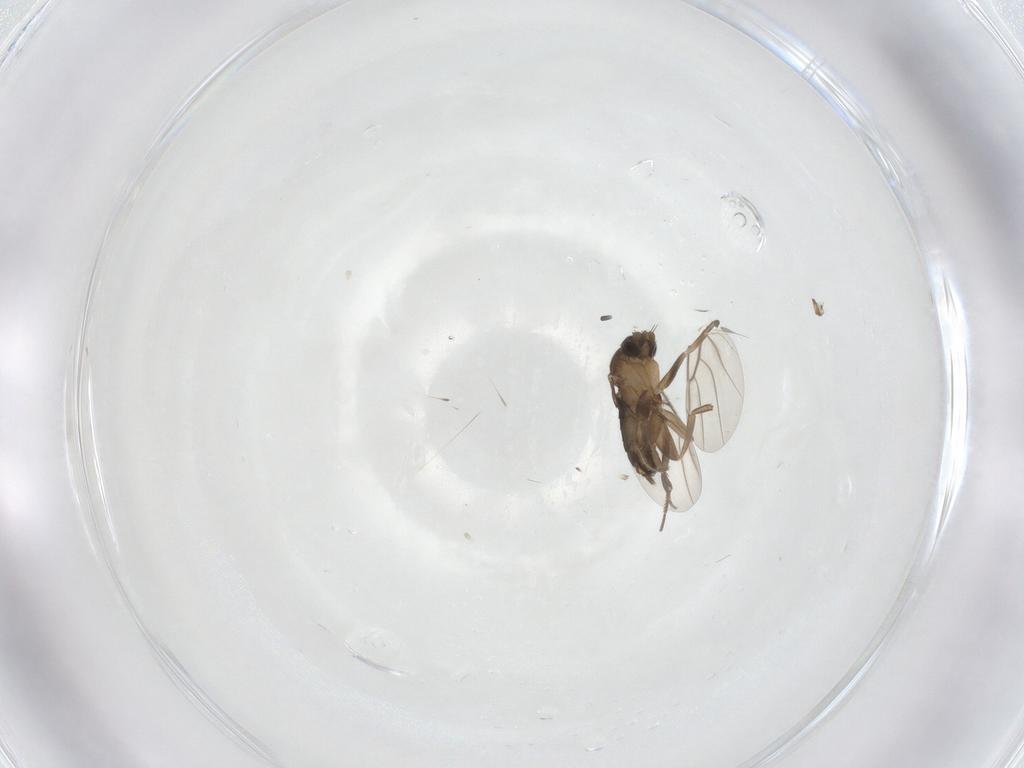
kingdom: Animalia
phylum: Arthropoda
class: Insecta
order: Diptera
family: Phoridae
